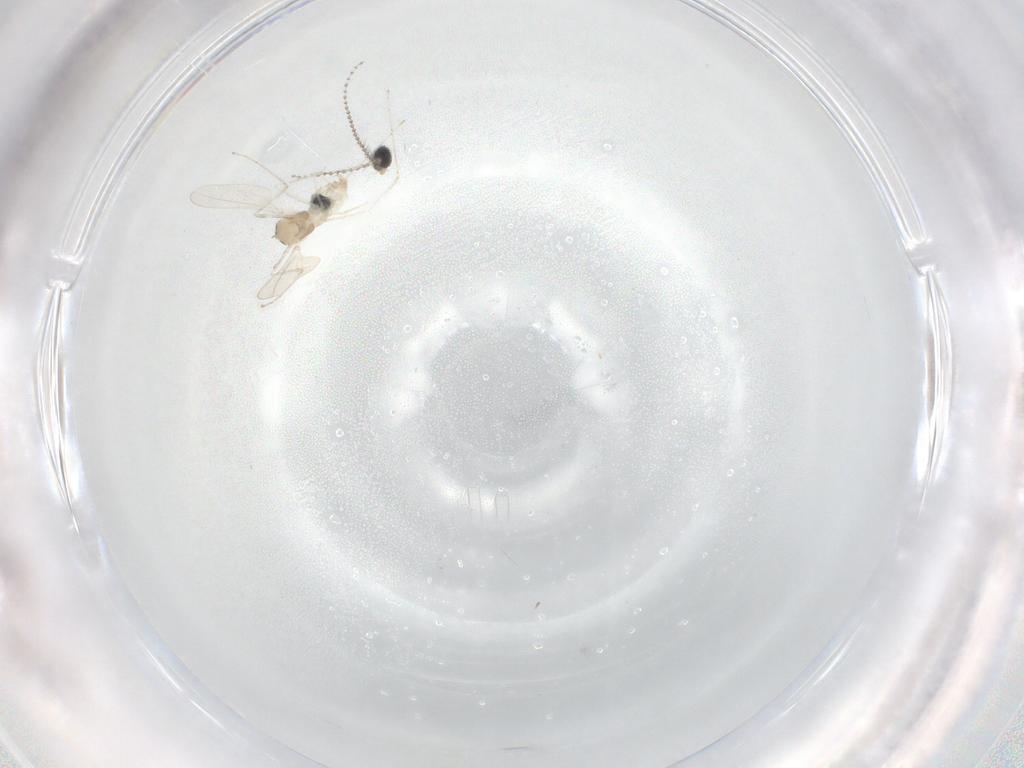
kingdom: Animalia
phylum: Arthropoda
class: Insecta
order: Diptera
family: Cecidomyiidae
